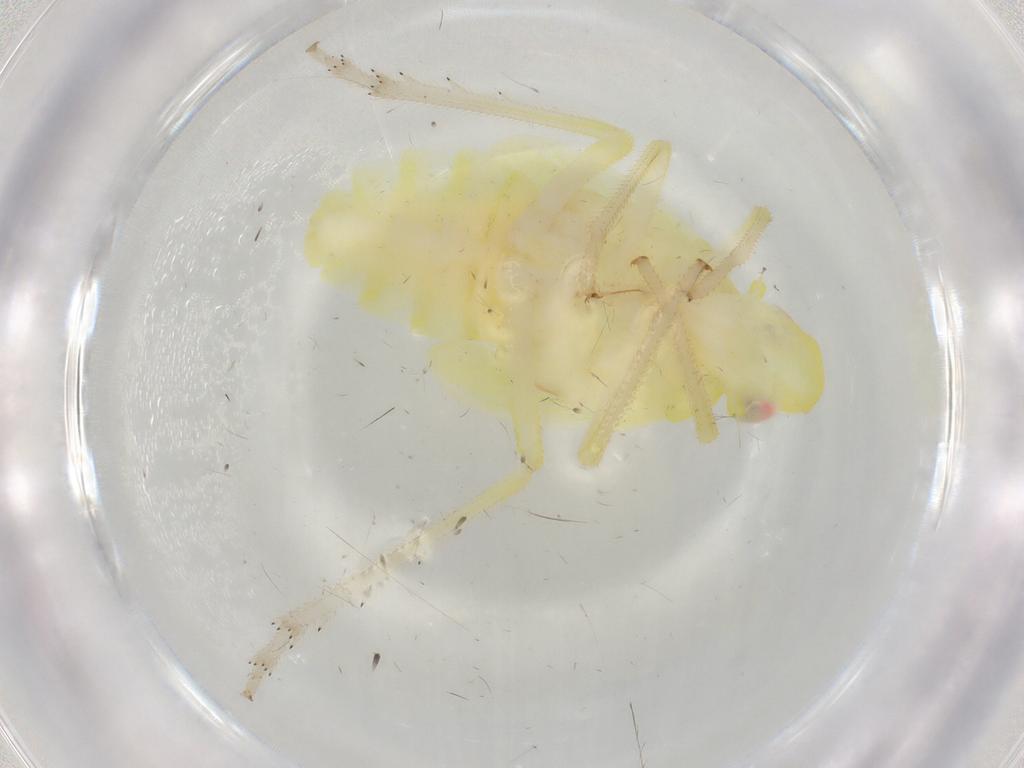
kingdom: Animalia
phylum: Arthropoda
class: Insecta
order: Hemiptera
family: Tropiduchidae
